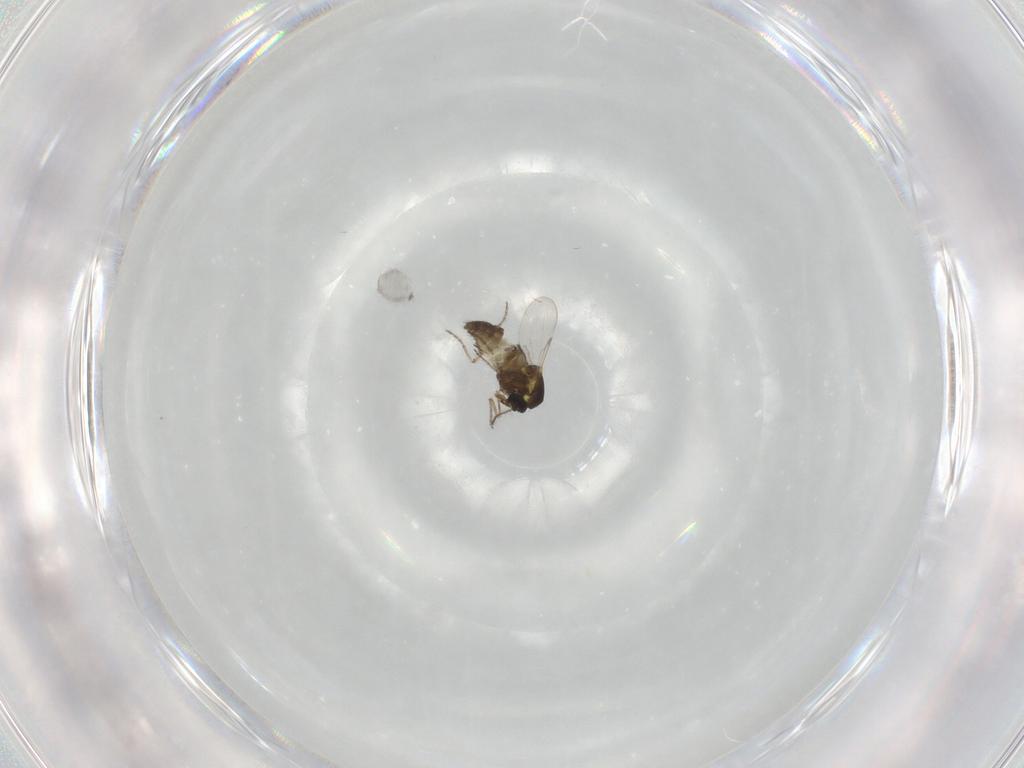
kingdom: Animalia
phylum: Arthropoda
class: Insecta
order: Diptera
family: Ceratopogonidae
